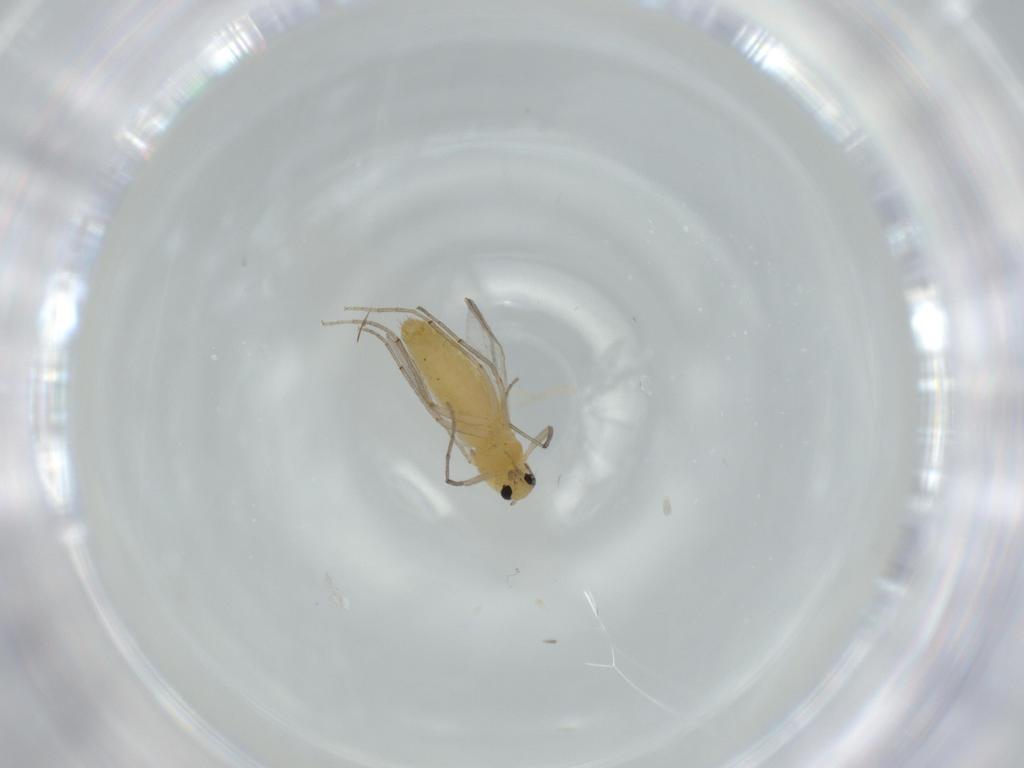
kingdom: Animalia
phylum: Arthropoda
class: Insecta
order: Diptera
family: Chironomidae
